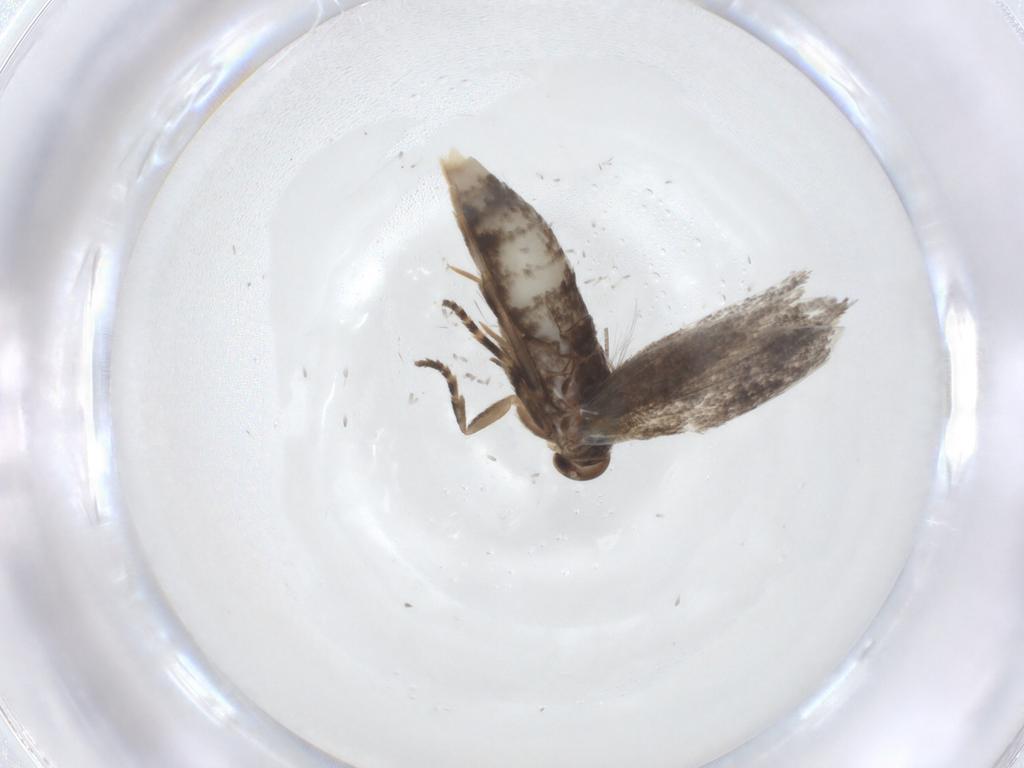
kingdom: Animalia
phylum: Arthropoda
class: Insecta
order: Lepidoptera
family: Elachistidae
